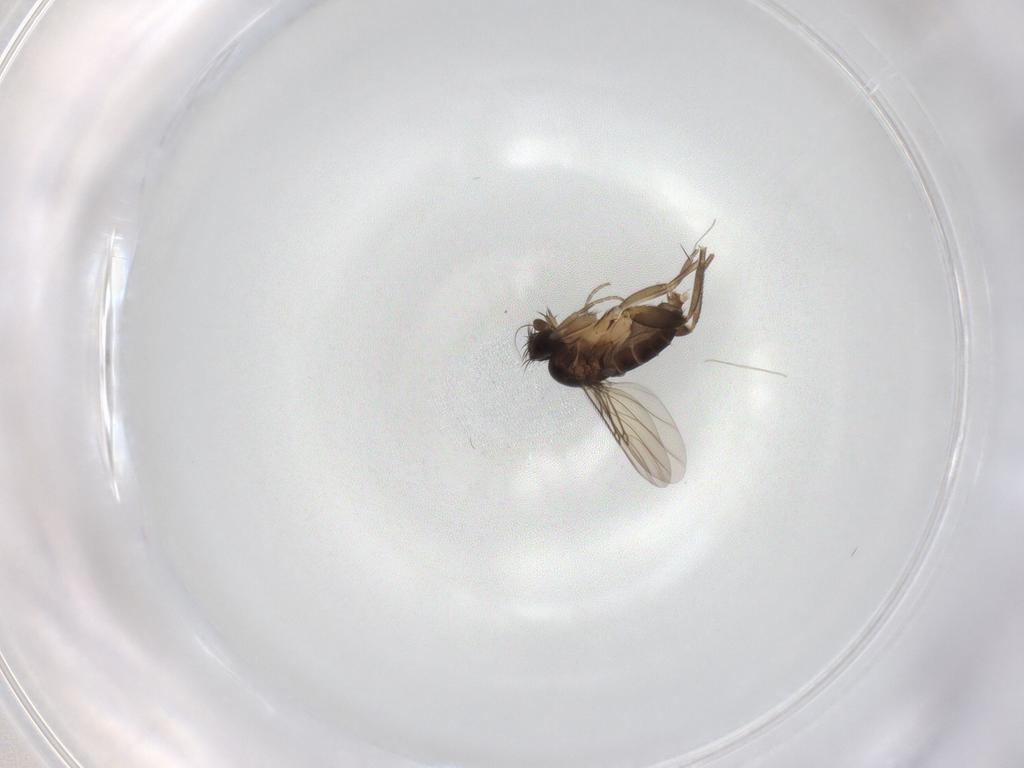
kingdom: Animalia
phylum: Arthropoda
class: Insecta
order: Diptera
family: Phoridae
